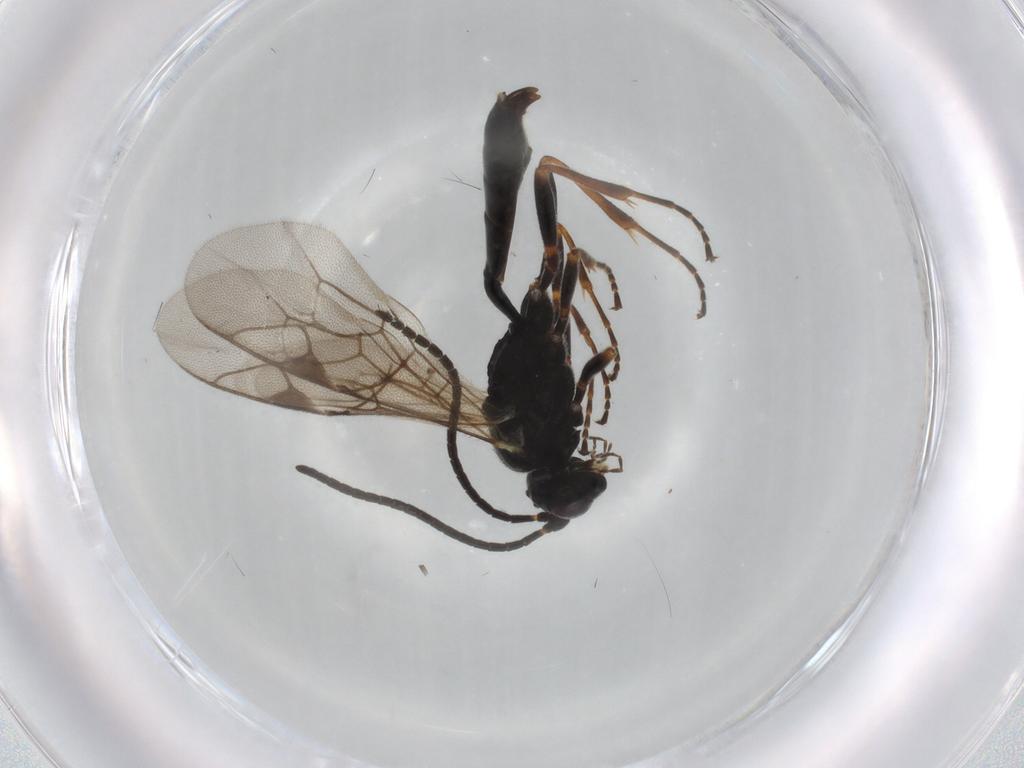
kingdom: Animalia
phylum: Arthropoda
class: Insecta
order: Hymenoptera
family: Ichneumonidae
